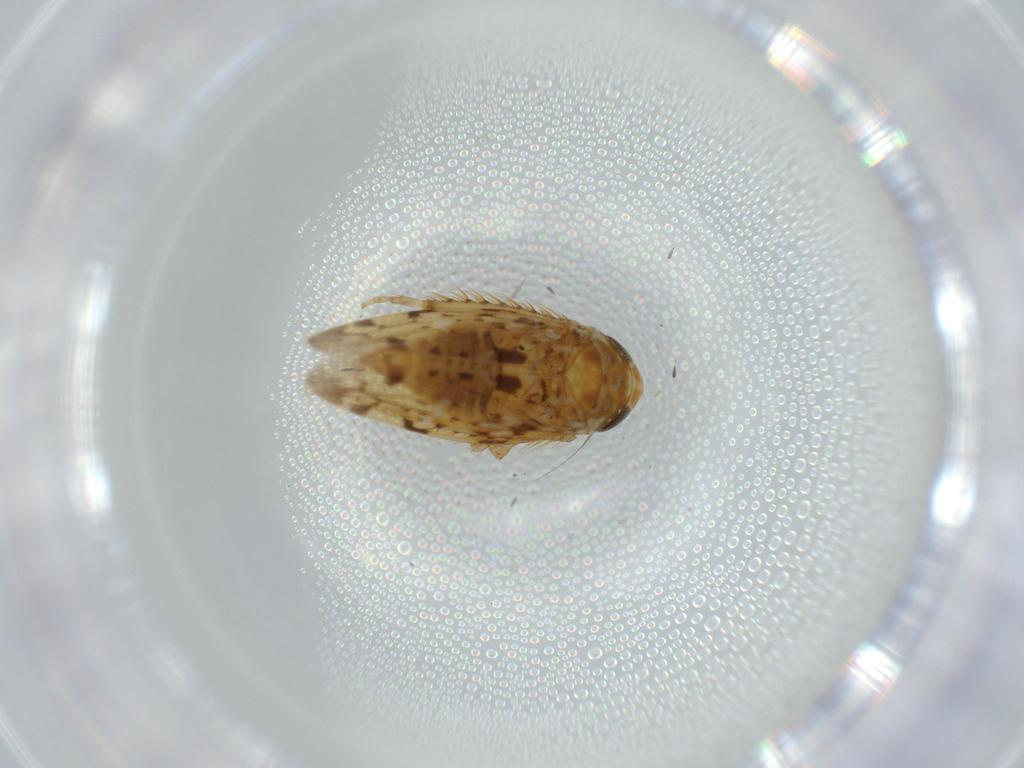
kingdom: Animalia
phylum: Arthropoda
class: Insecta
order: Hemiptera
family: Cicadellidae
